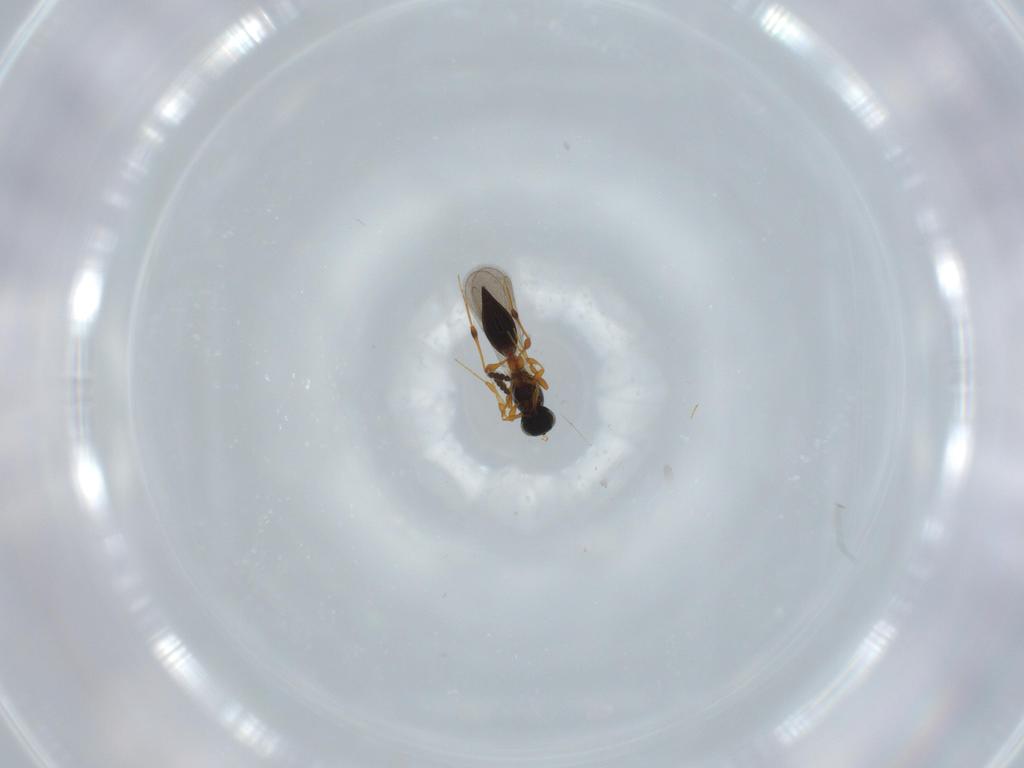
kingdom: Animalia
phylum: Arthropoda
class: Insecta
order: Hymenoptera
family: Platygastridae
